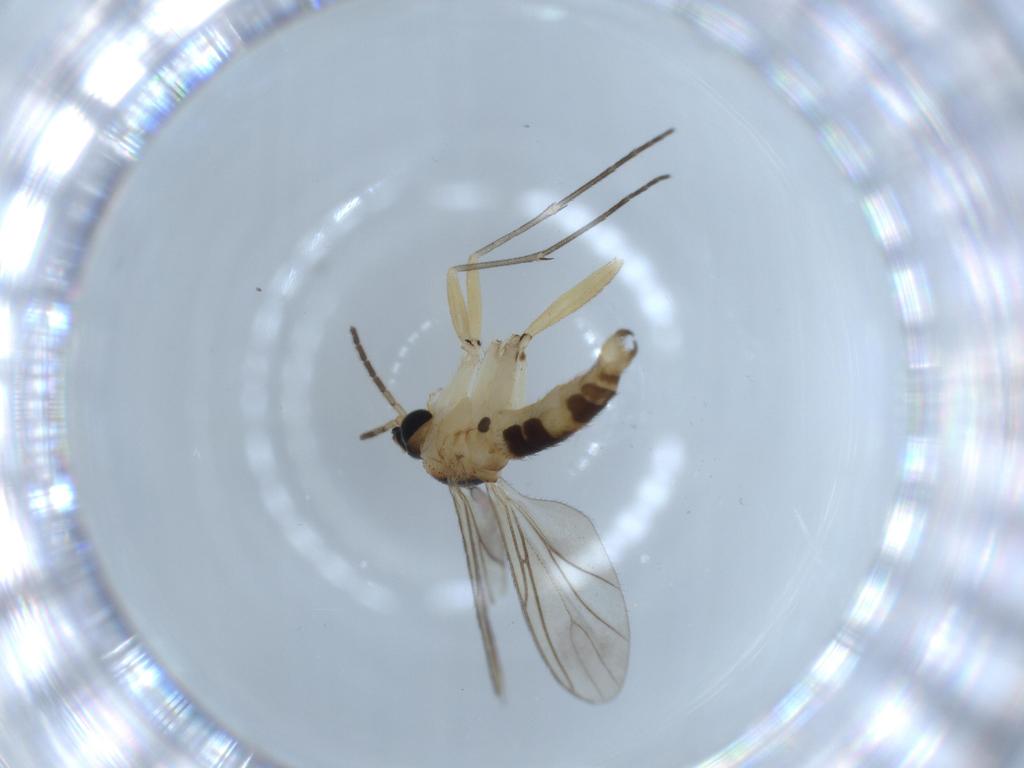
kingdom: Animalia
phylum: Arthropoda
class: Insecta
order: Diptera
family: Sciaridae
